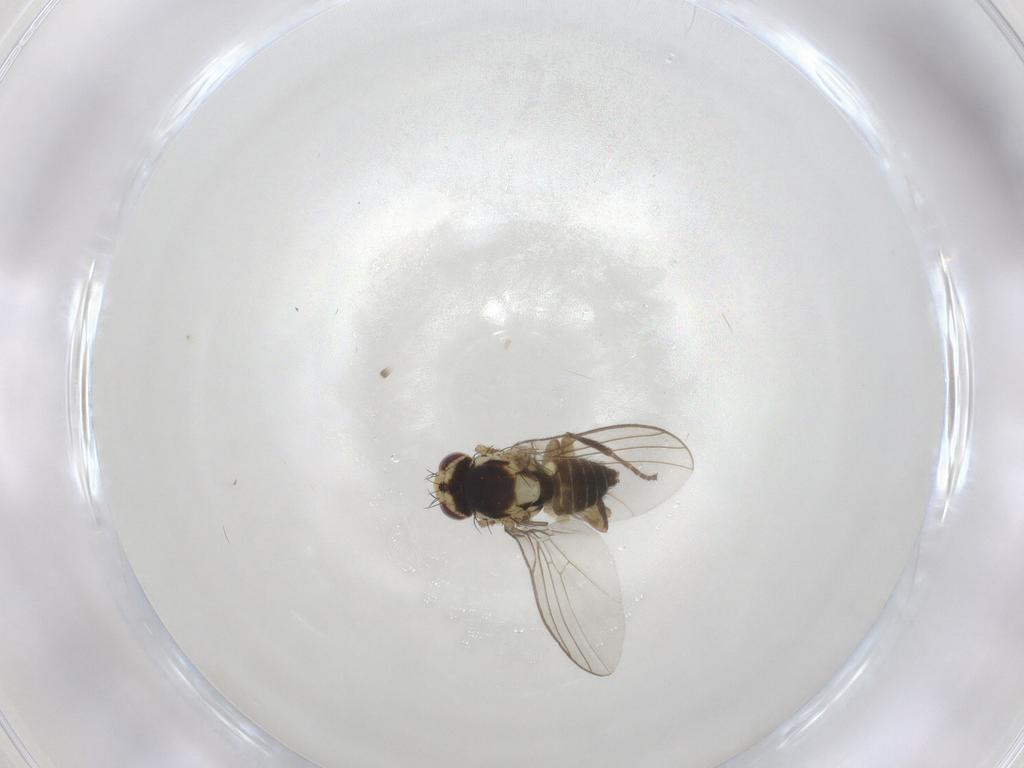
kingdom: Animalia
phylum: Arthropoda
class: Insecta
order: Diptera
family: Agromyzidae
